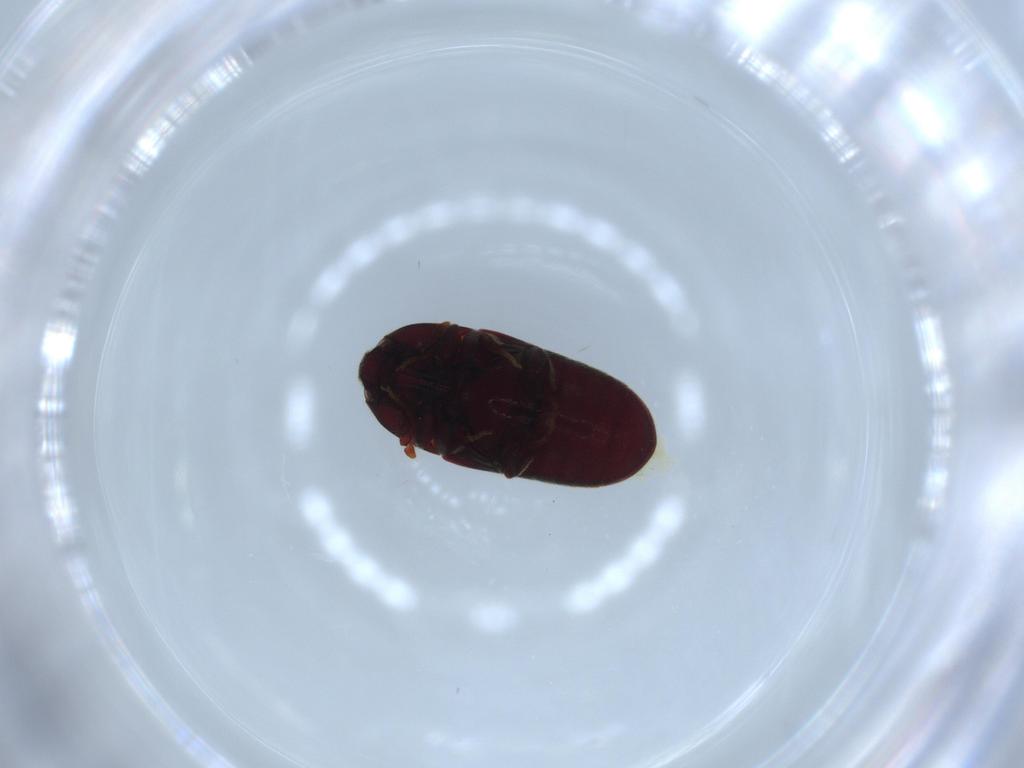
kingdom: Animalia
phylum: Arthropoda
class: Insecta
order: Coleoptera
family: Throscidae
